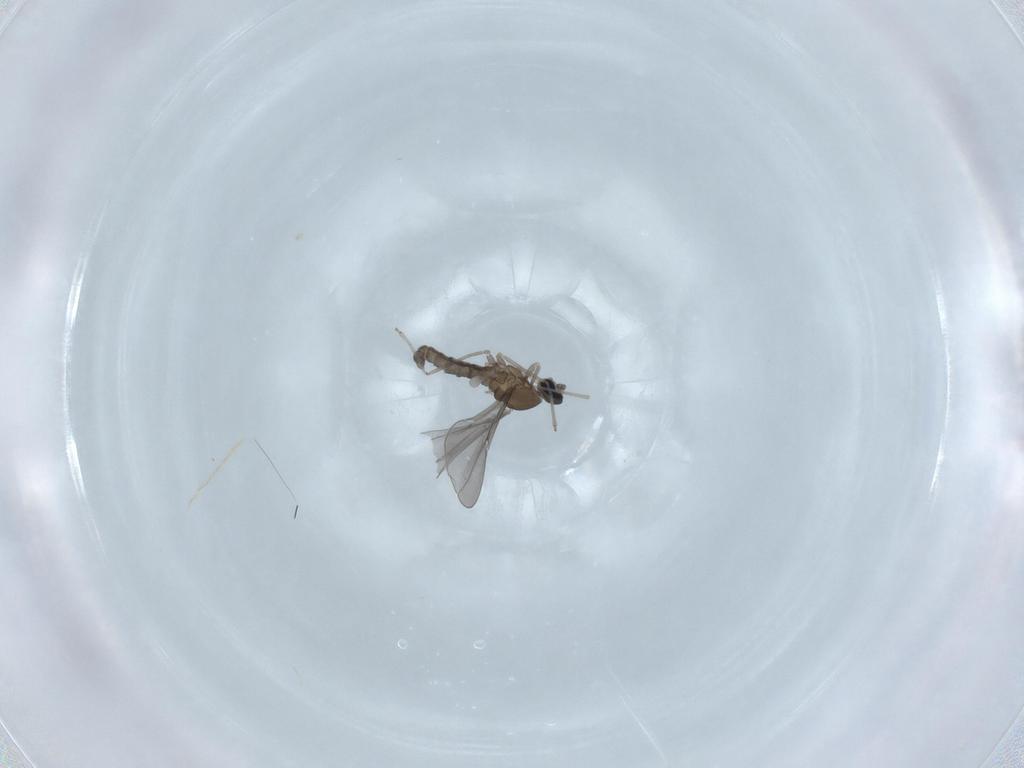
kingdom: Animalia
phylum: Arthropoda
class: Insecta
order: Diptera
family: Cecidomyiidae
